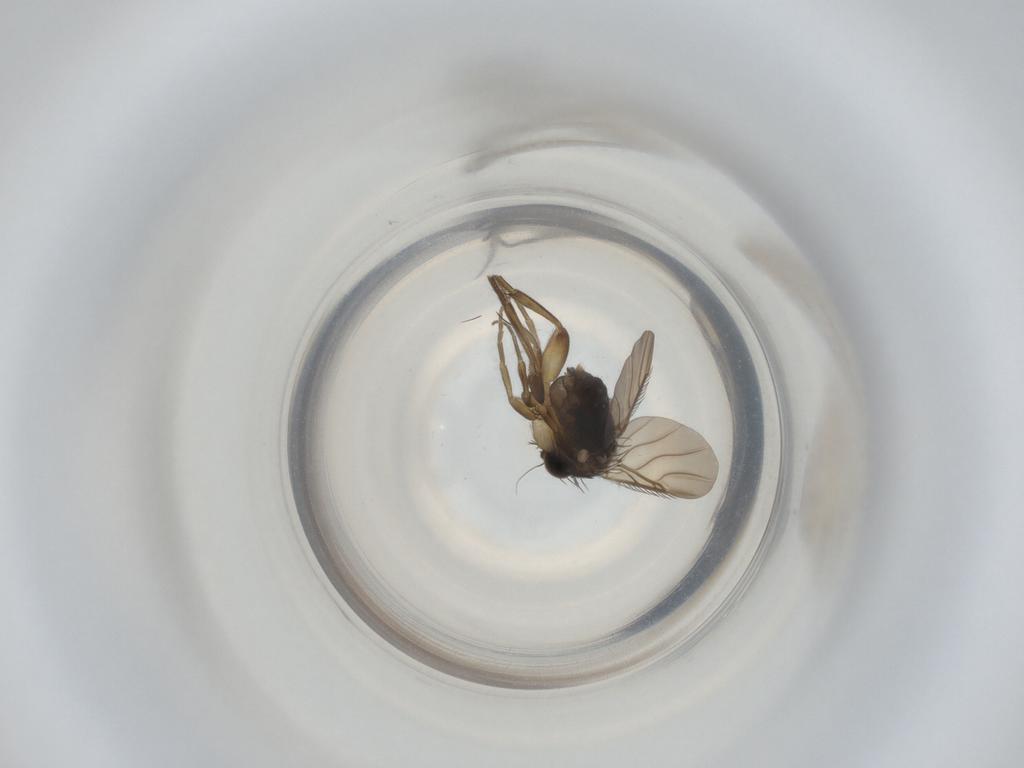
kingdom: Animalia
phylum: Arthropoda
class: Insecta
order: Diptera
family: Phoridae
